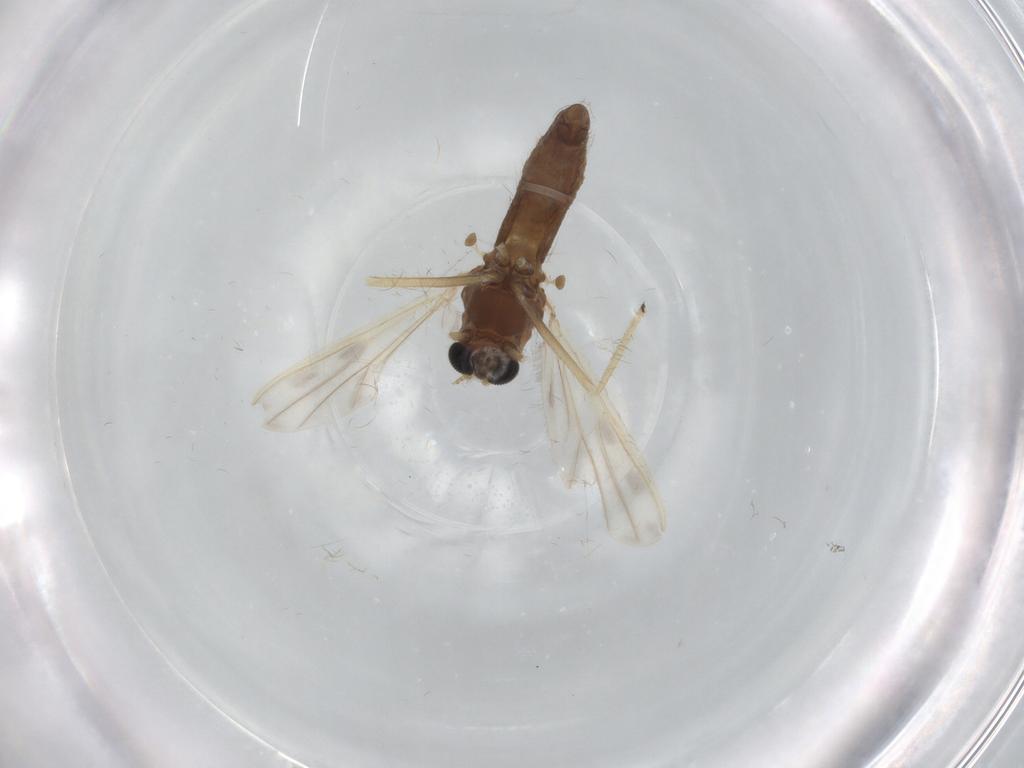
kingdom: Animalia
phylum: Arthropoda
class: Insecta
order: Diptera
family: Chironomidae
